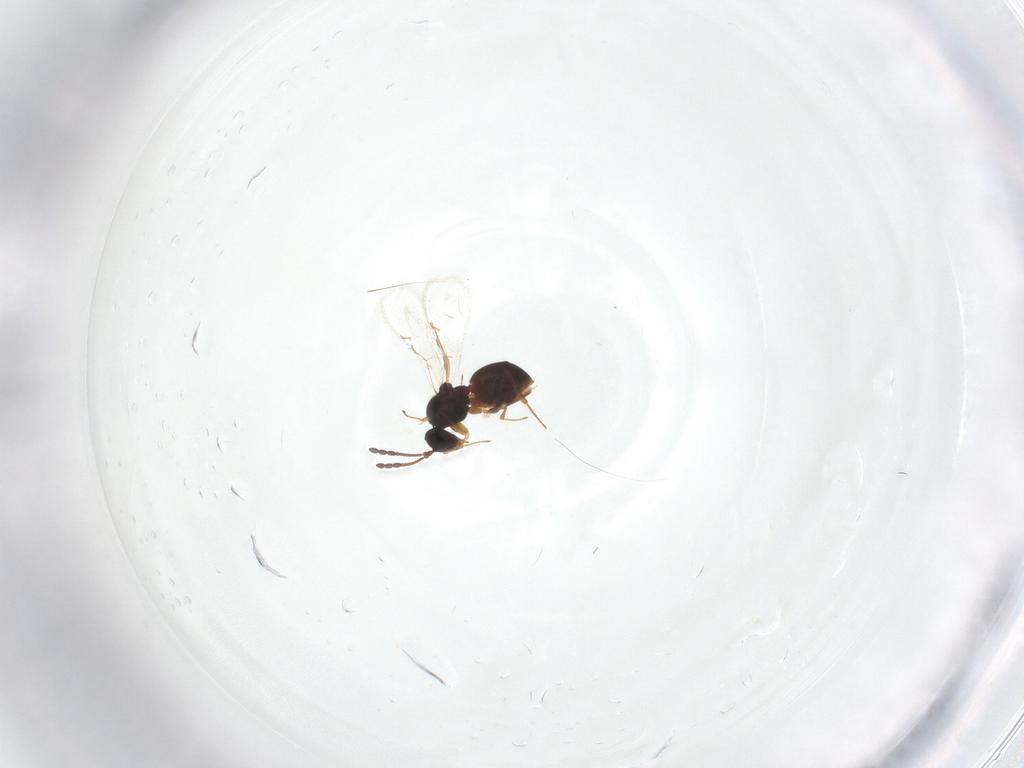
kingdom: Animalia
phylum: Arthropoda
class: Insecta
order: Hymenoptera
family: Figitidae
